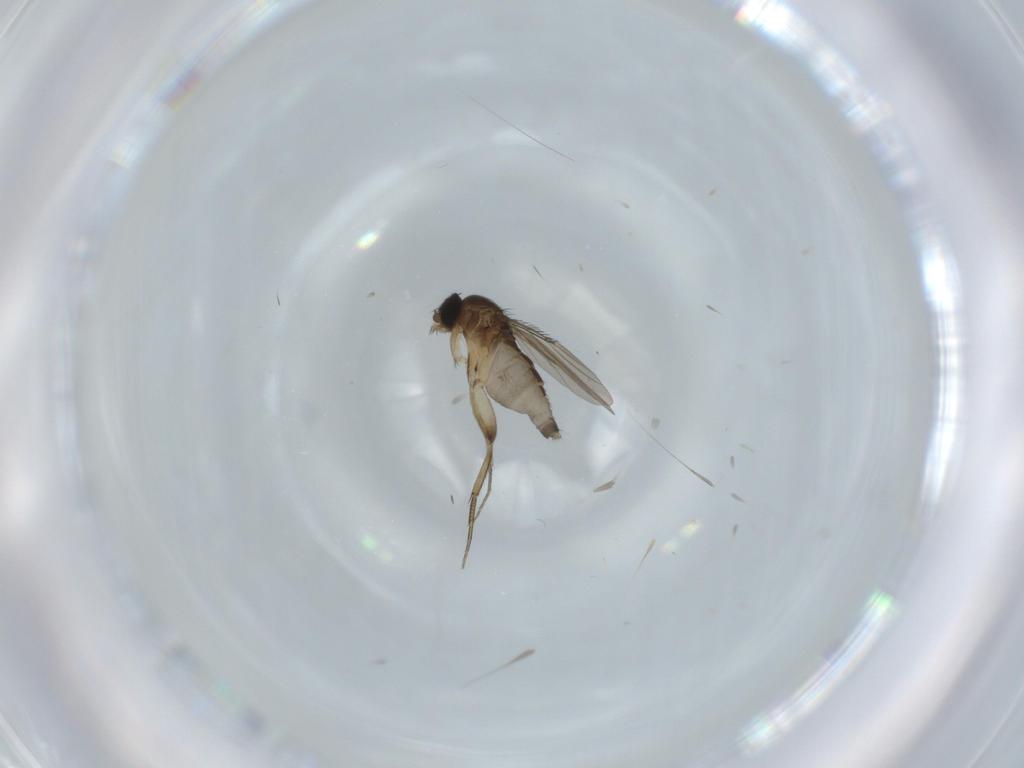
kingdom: Animalia
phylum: Arthropoda
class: Insecta
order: Diptera
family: Phoridae
